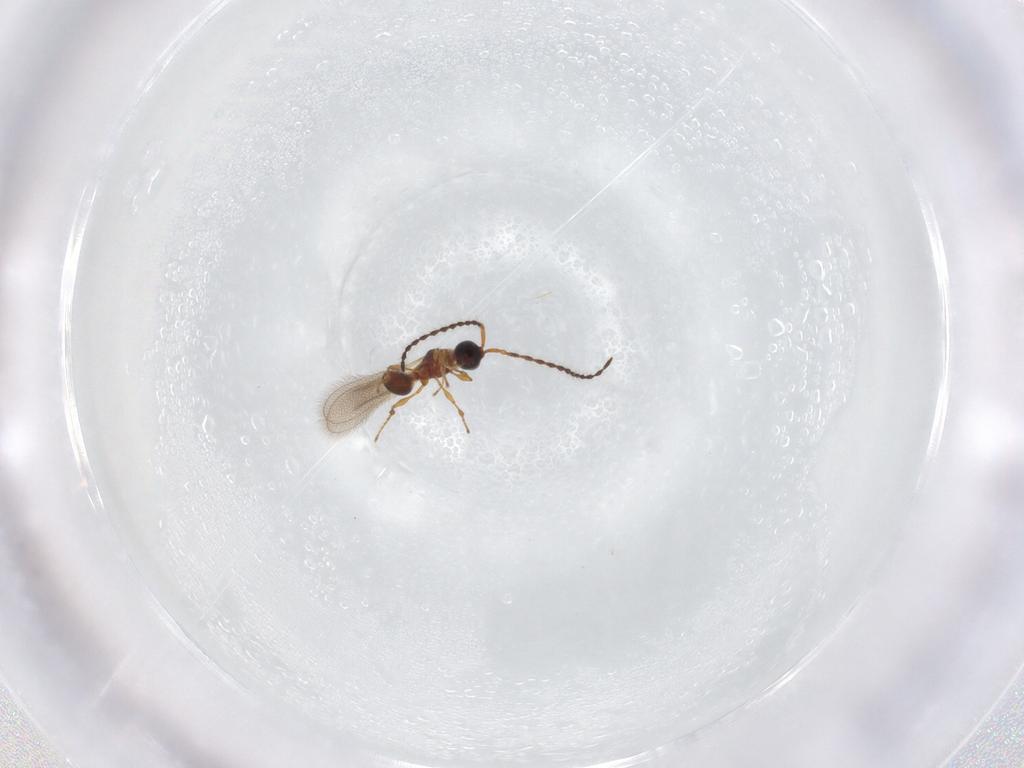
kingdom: Animalia
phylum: Arthropoda
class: Insecta
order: Hymenoptera
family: Diapriidae
